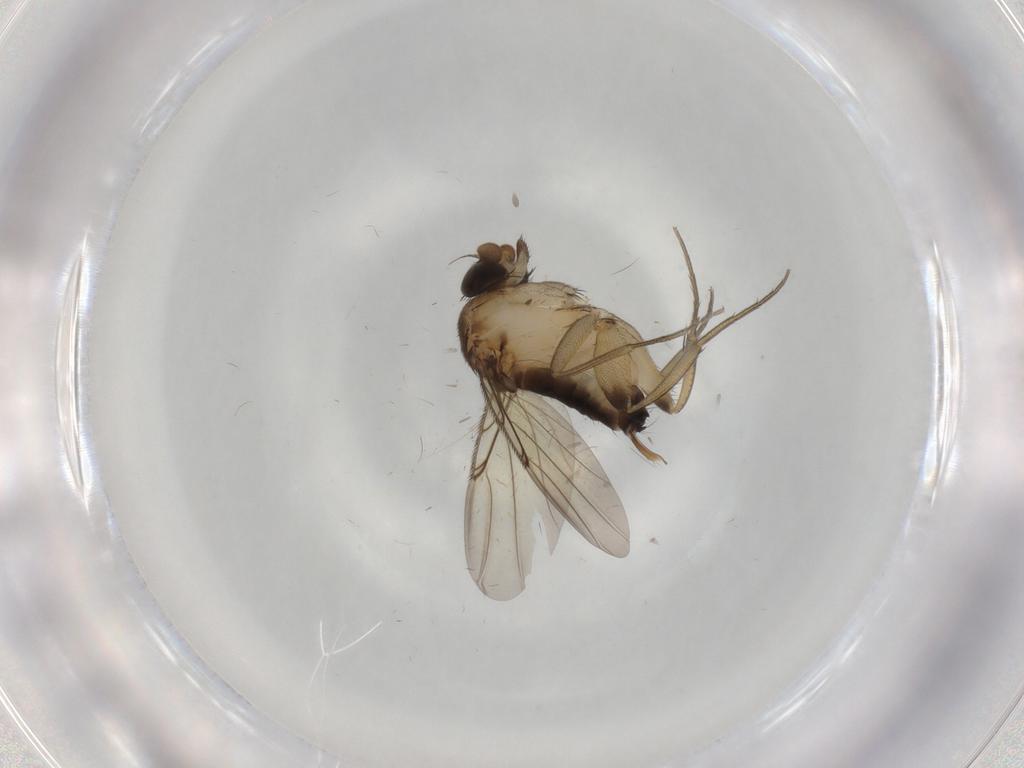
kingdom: Animalia
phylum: Arthropoda
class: Insecta
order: Diptera
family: Phoridae
